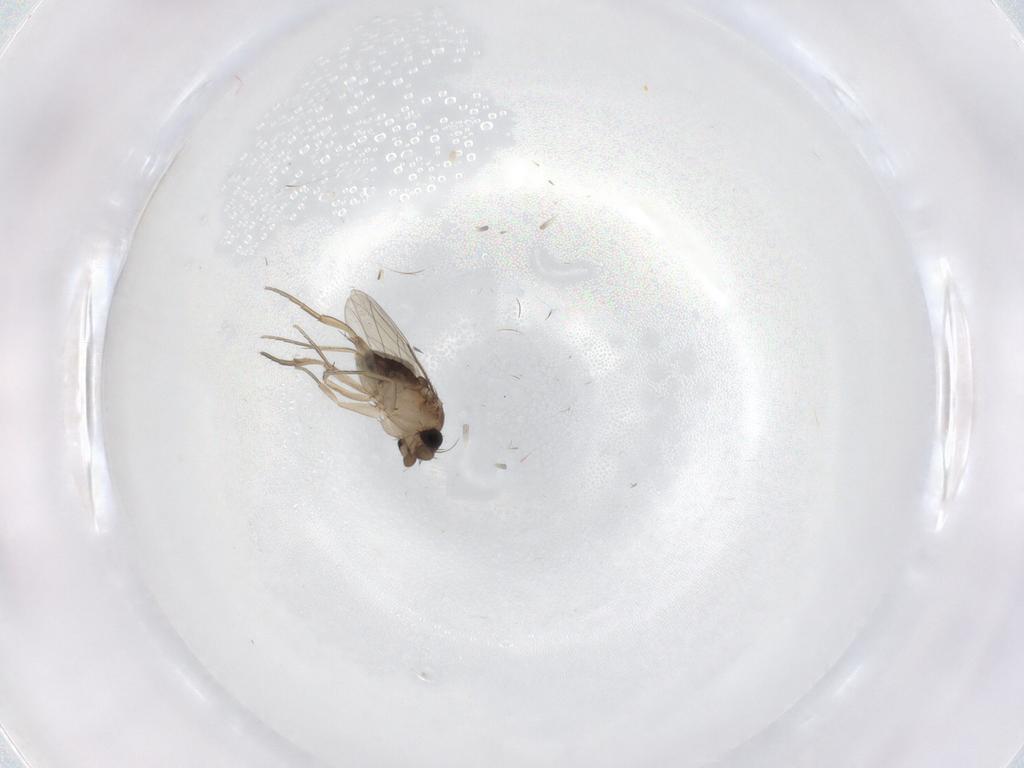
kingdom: Animalia
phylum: Arthropoda
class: Insecta
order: Diptera
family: Phoridae
